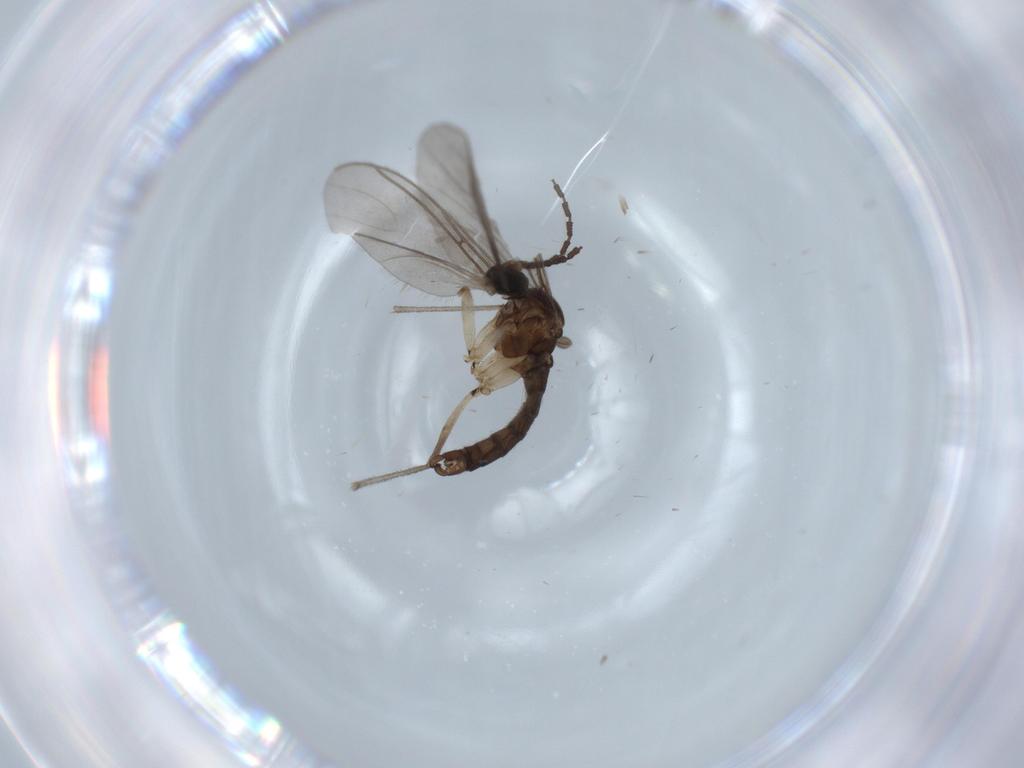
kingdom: Animalia
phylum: Arthropoda
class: Insecta
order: Diptera
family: Sciaridae
